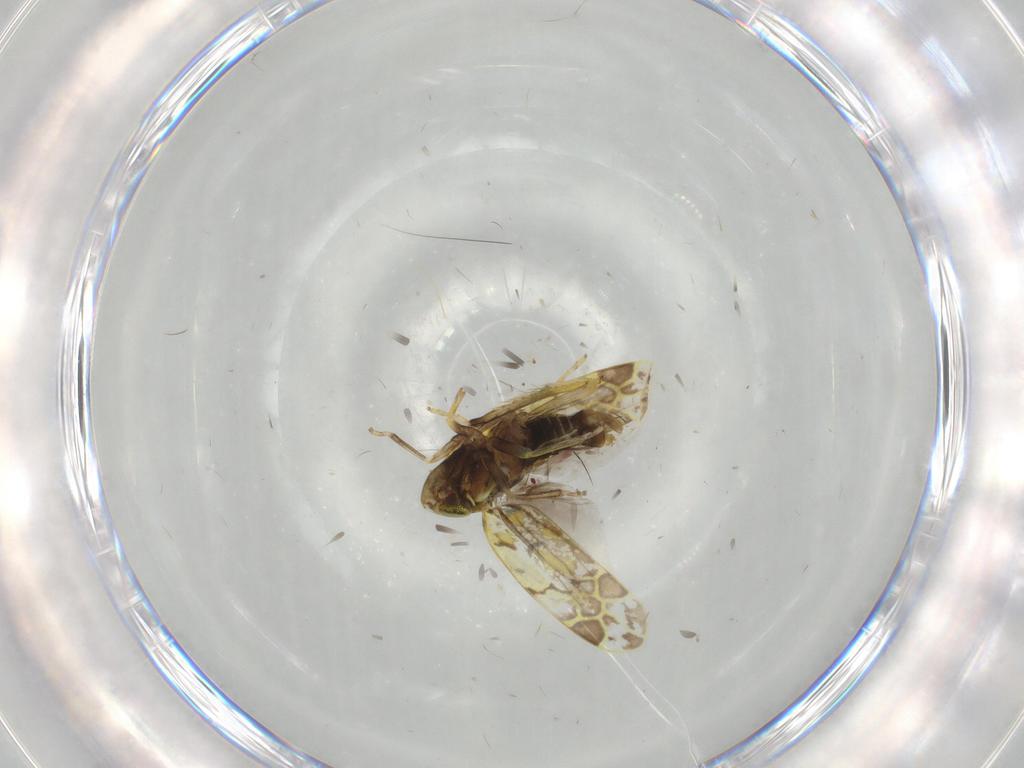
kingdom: Animalia
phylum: Arthropoda
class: Insecta
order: Hemiptera
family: Cicadellidae
